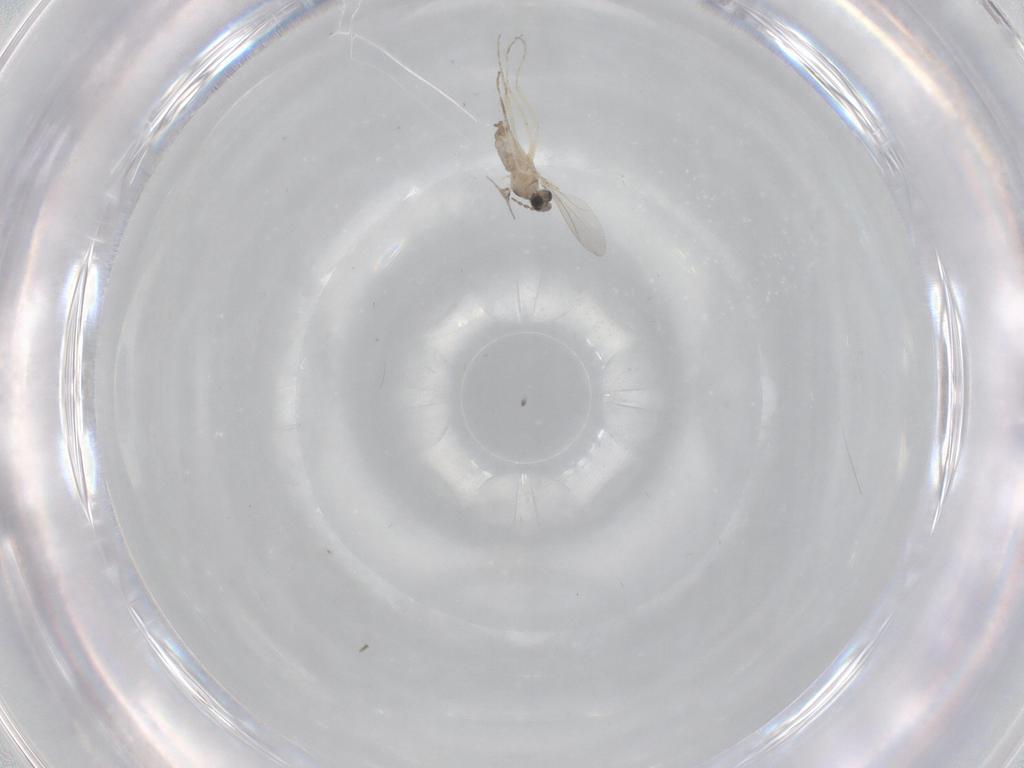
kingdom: Animalia
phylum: Arthropoda
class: Insecta
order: Diptera
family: Cecidomyiidae
